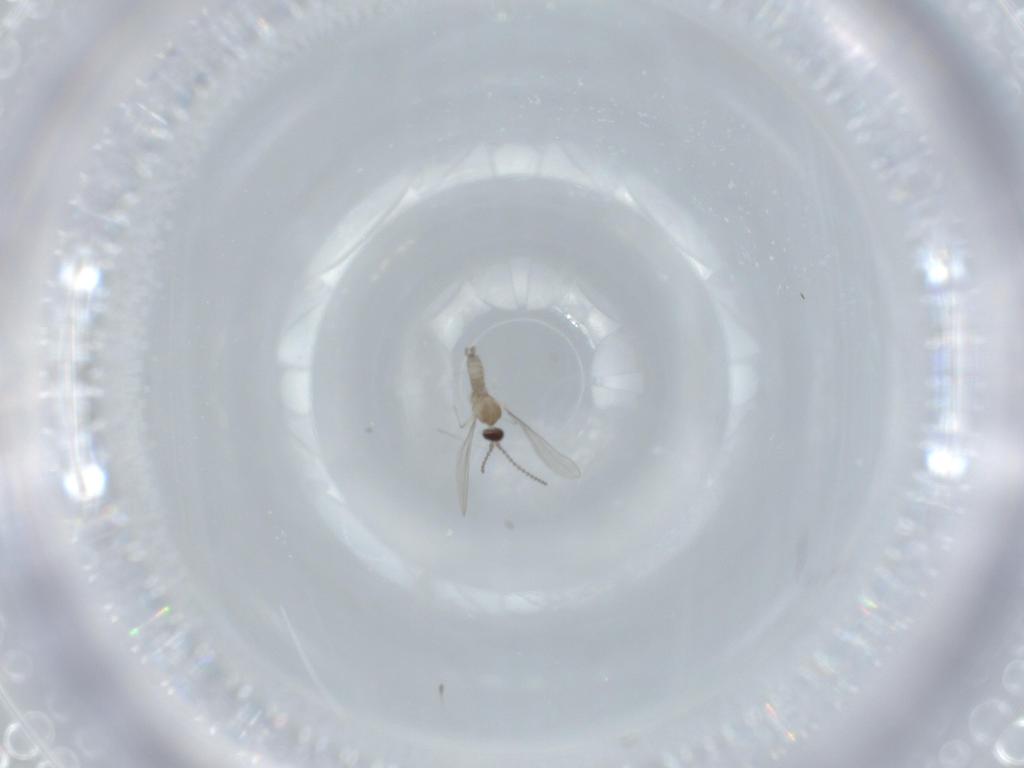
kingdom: Animalia
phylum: Arthropoda
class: Insecta
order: Diptera
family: Cecidomyiidae
